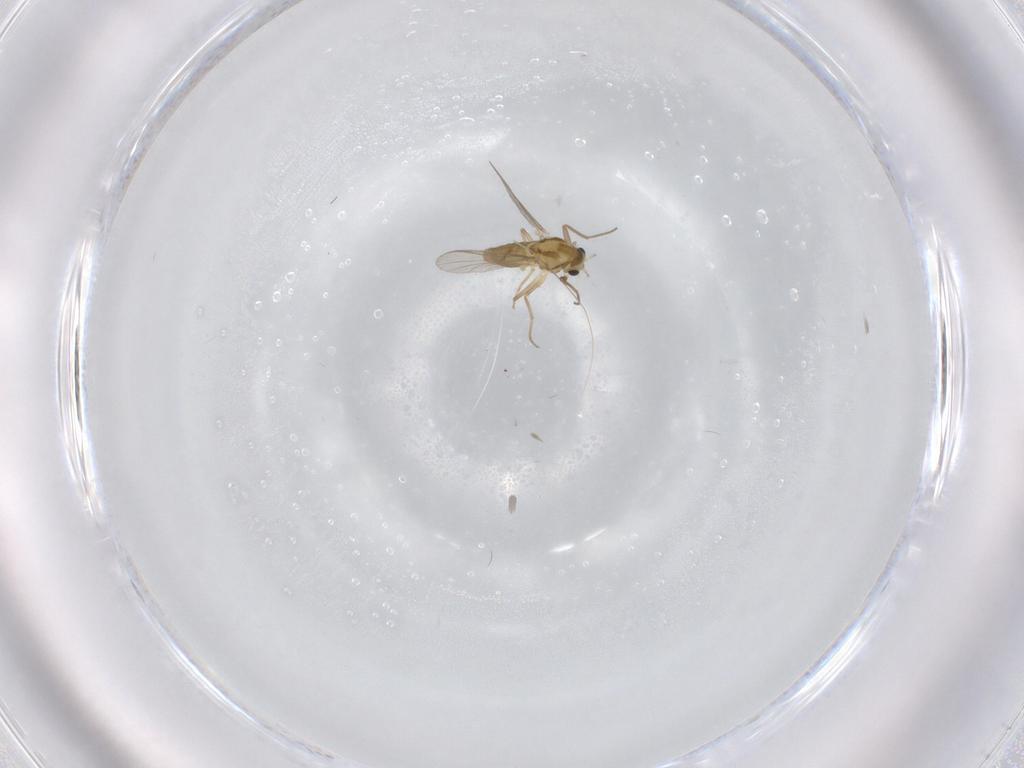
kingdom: Animalia
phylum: Arthropoda
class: Insecta
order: Diptera
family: Chironomidae
